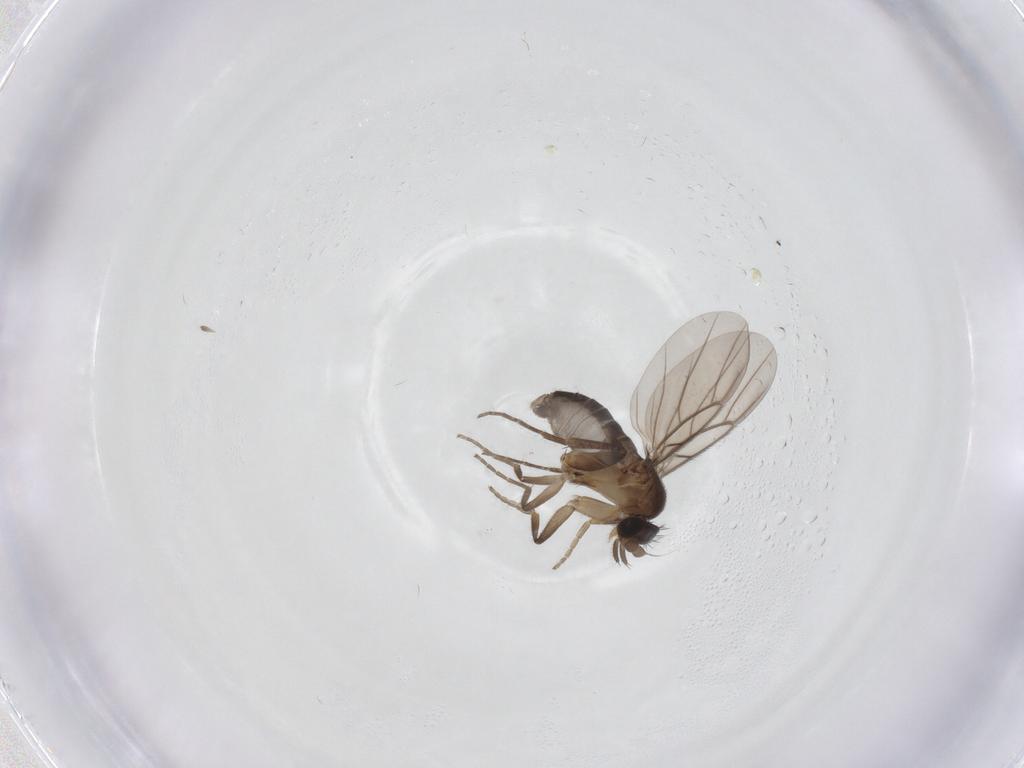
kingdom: Animalia
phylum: Arthropoda
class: Insecta
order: Diptera
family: Phoridae
